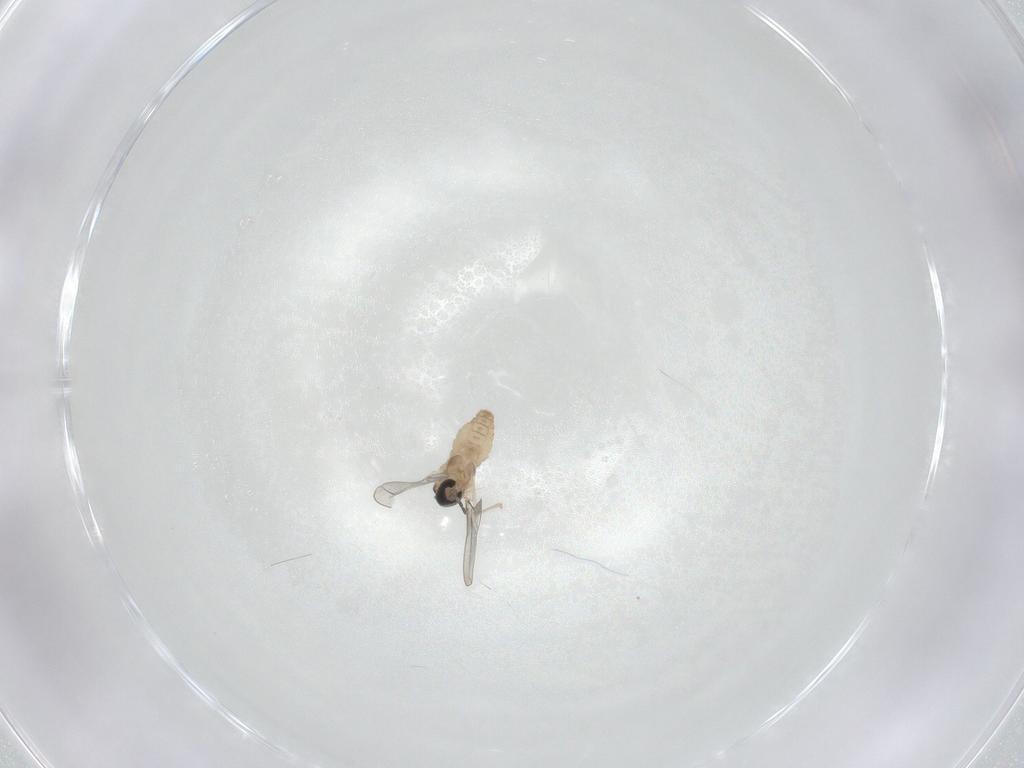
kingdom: Animalia
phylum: Arthropoda
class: Insecta
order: Diptera
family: Cecidomyiidae
